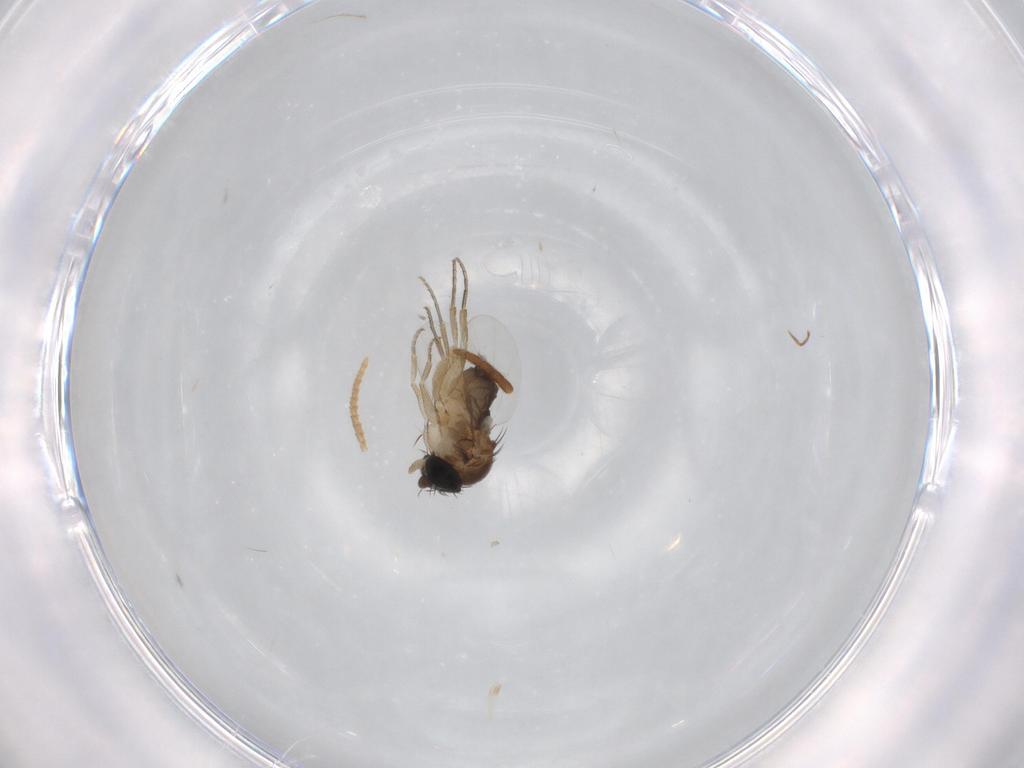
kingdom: Animalia
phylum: Arthropoda
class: Insecta
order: Diptera
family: Phoridae
